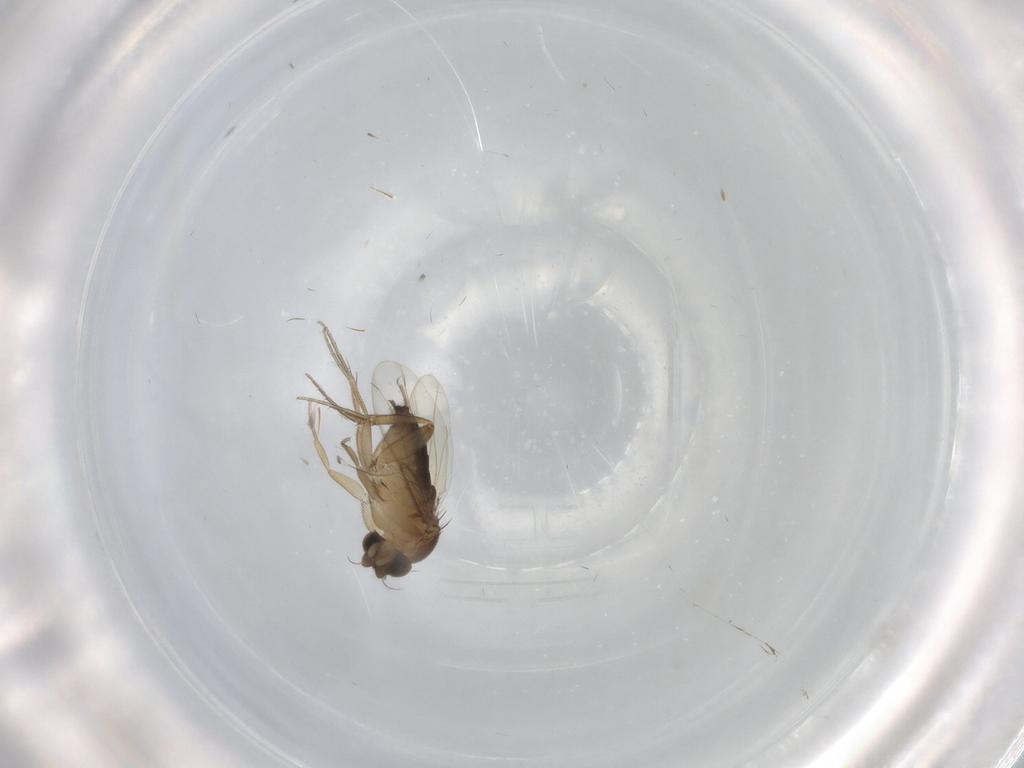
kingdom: Animalia
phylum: Arthropoda
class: Insecta
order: Diptera
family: Phoridae
